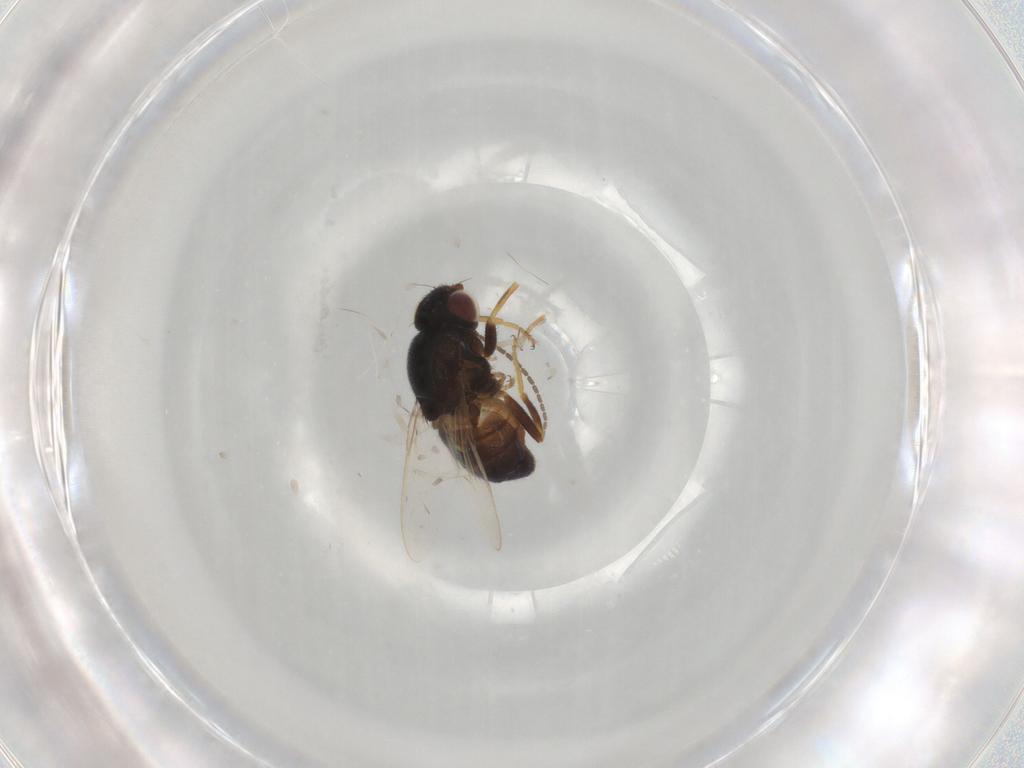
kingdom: Animalia
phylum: Arthropoda
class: Insecta
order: Diptera
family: Chloropidae
